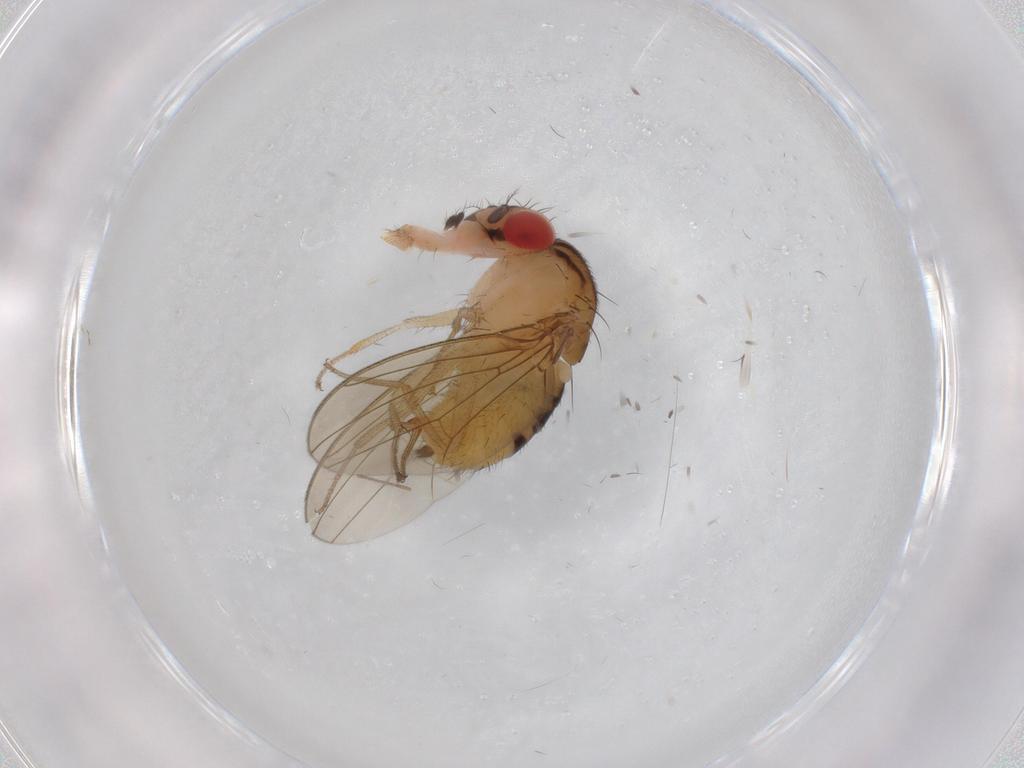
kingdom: Animalia
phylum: Arthropoda
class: Insecta
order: Diptera
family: Drosophilidae
